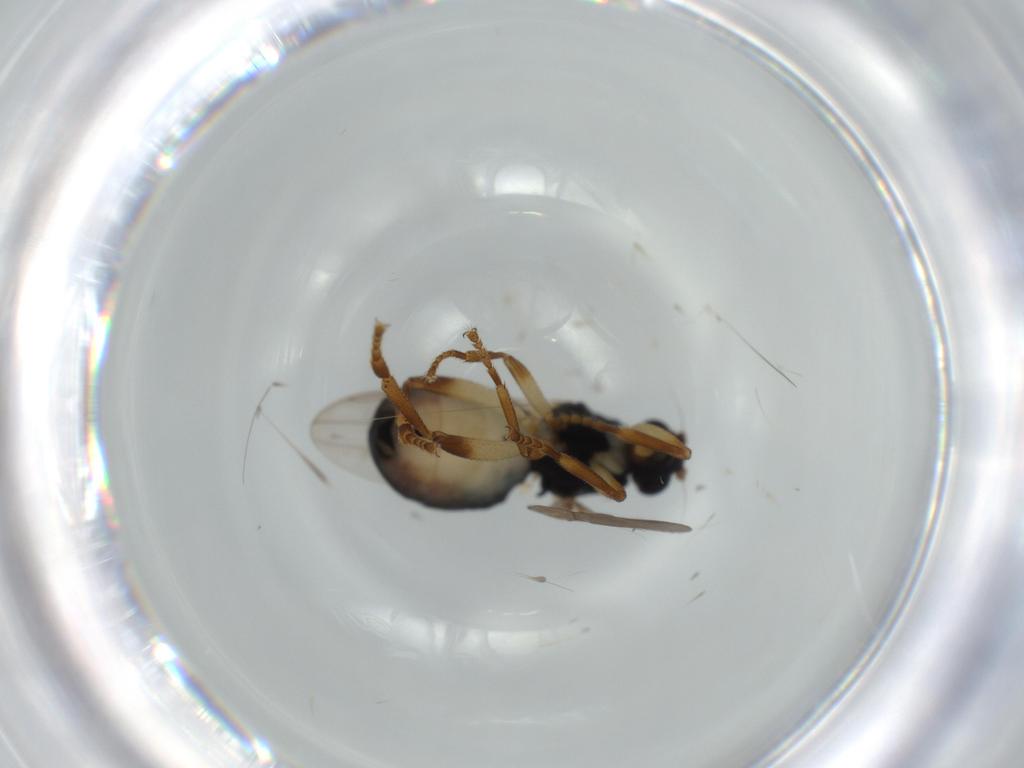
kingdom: Animalia
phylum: Arthropoda
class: Insecta
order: Diptera
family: Sphaeroceridae
